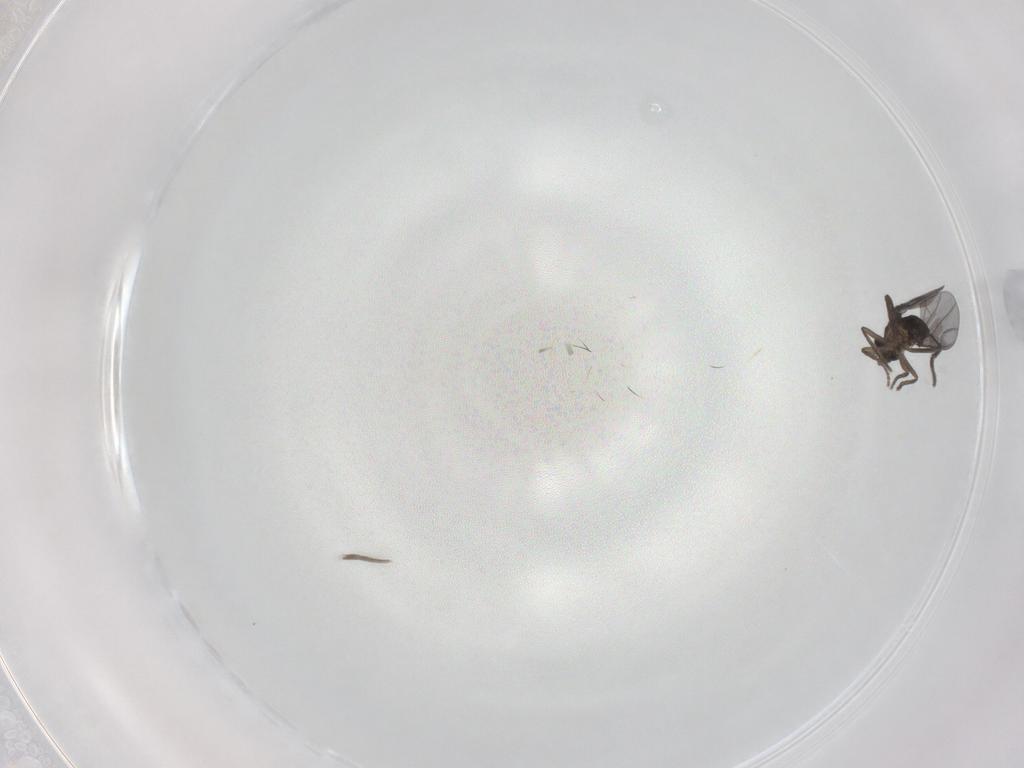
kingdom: Animalia
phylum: Arthropoda
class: Insecta
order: Diptera
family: Phoridae
